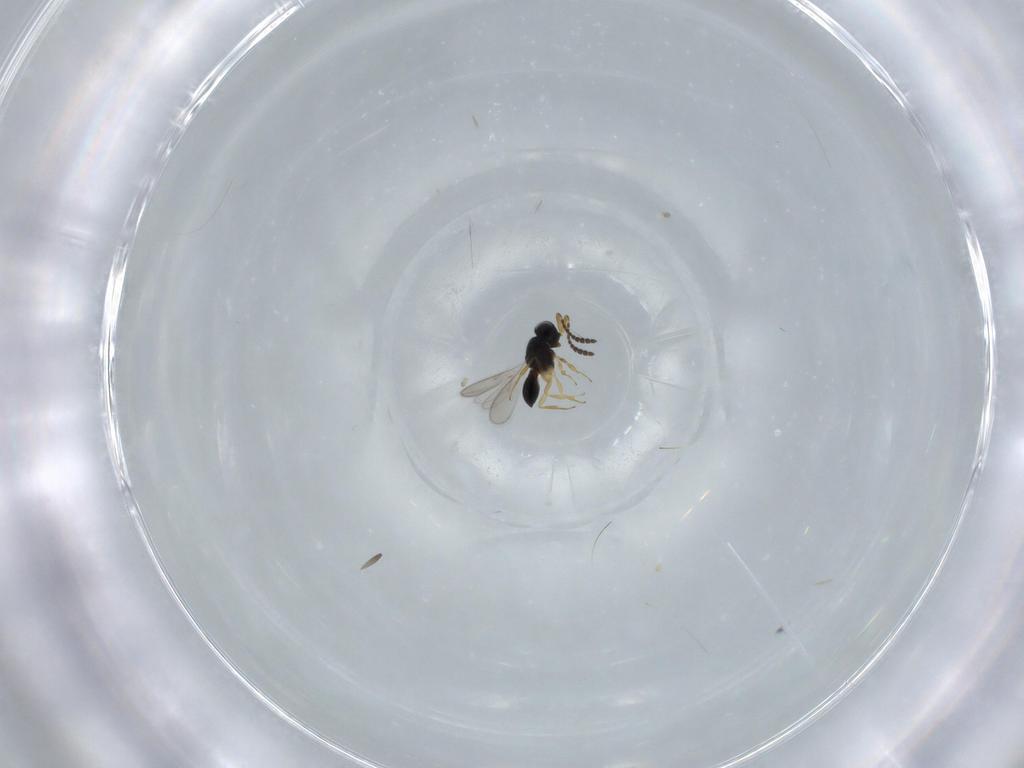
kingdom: Animalia
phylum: Arthropoda
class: Insecta
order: Hymenoptera
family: Scelionidae
